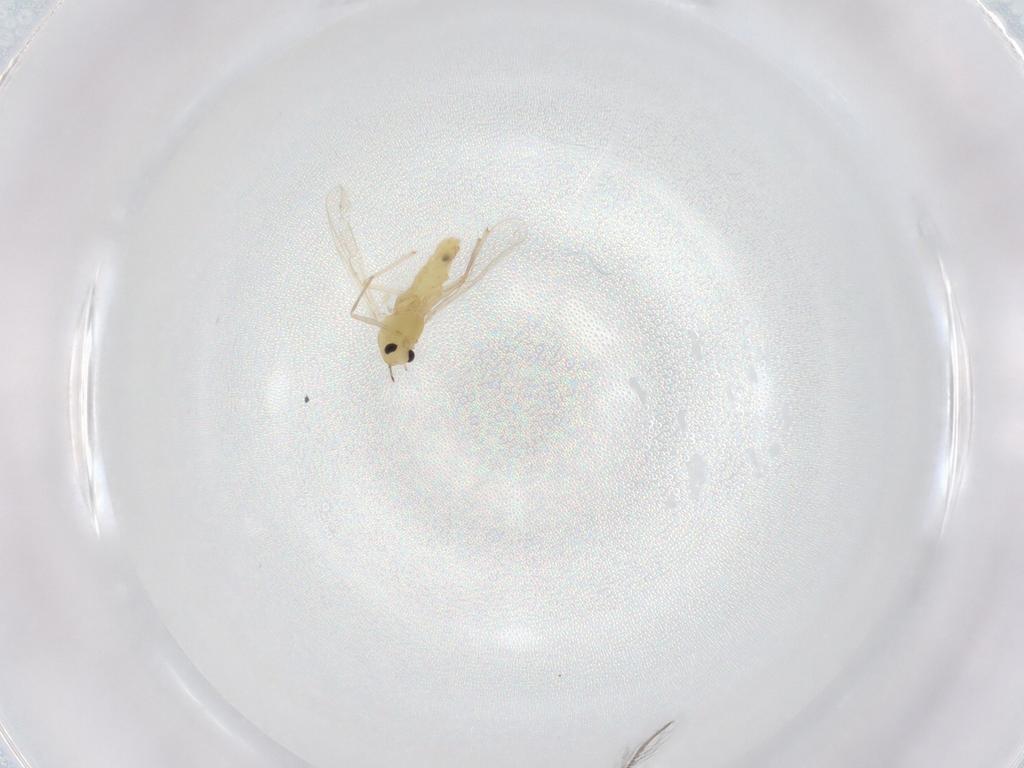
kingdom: Animalia
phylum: Arthropoda
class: Insecta
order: Diptera
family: Chironomidae
